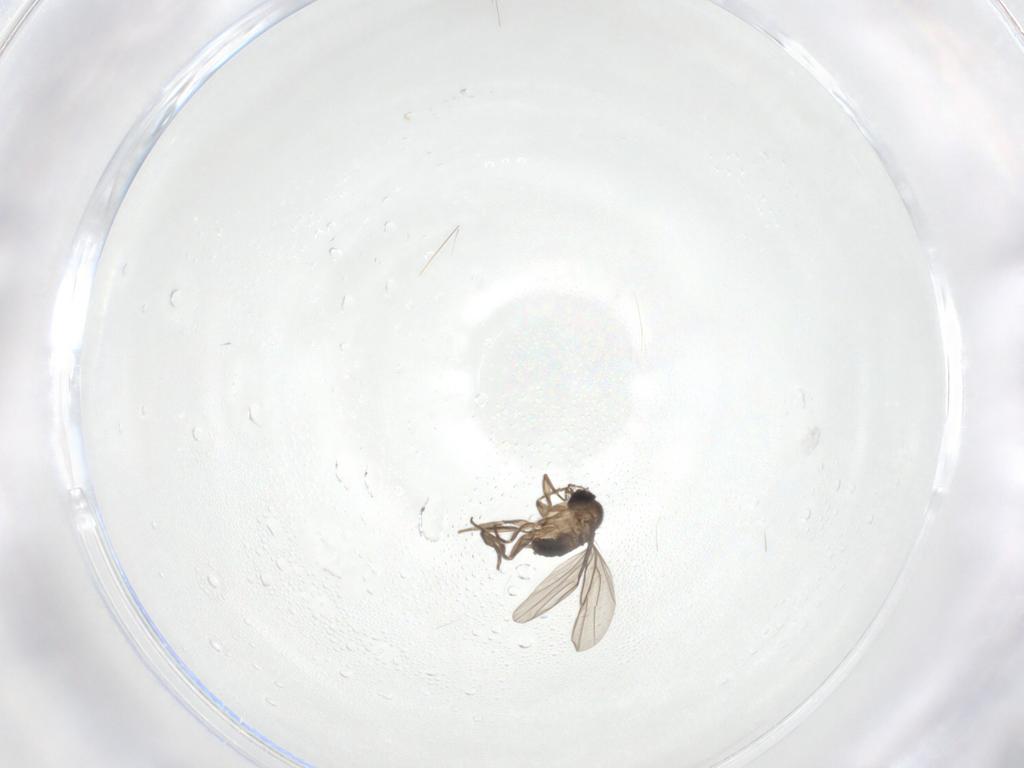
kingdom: Animalia
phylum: Arthropoda
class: Insecta
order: Diptera
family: Phoridae
